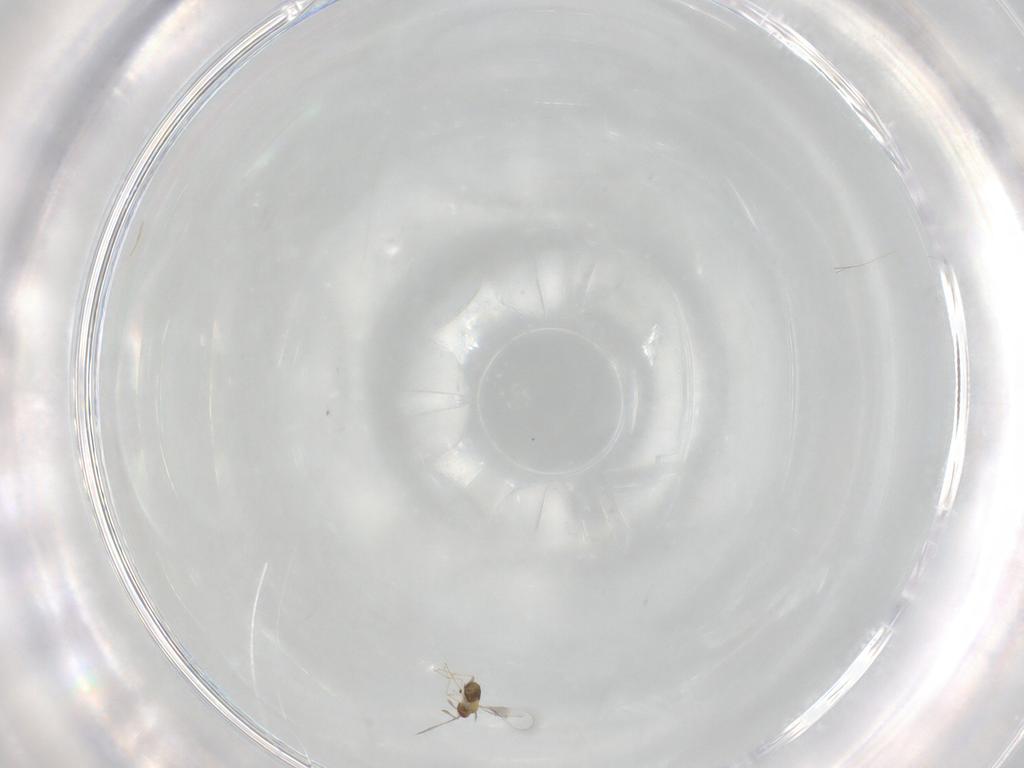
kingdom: Animalia
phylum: Arthropoda
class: Insecta
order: Hymenoptera
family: Trichogrammatidae
